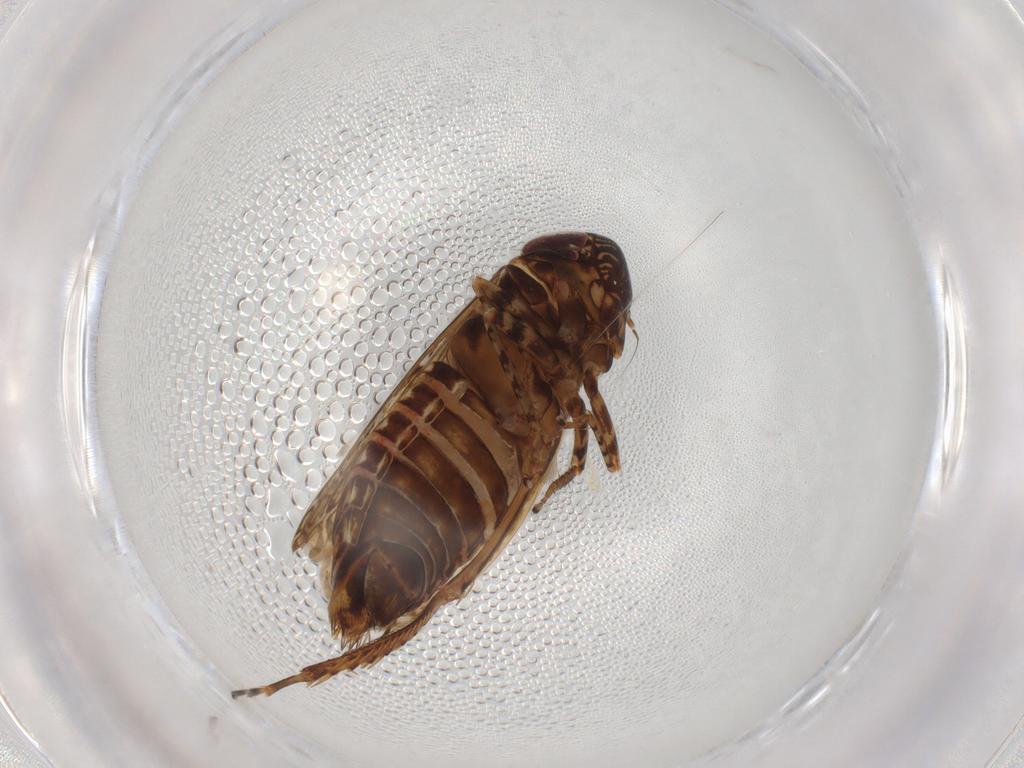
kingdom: Animalia
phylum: Arthropoda
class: Insecta
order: Hemiptera
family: Cicadellidae
